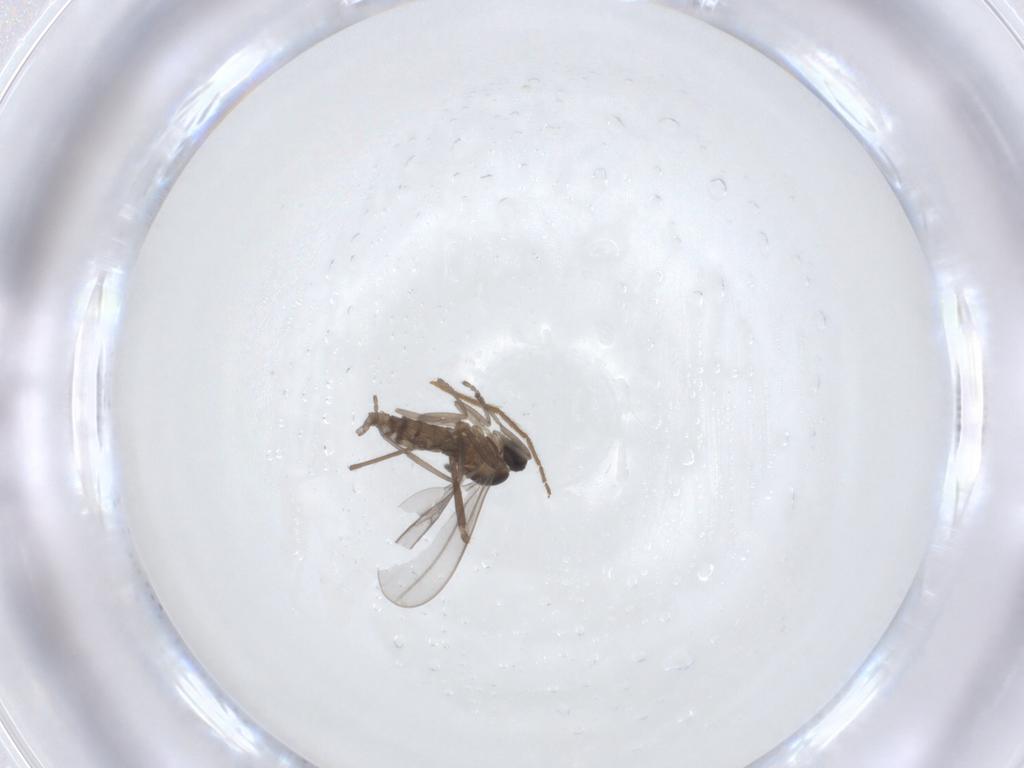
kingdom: Animalia
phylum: Arthropoda
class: Insecta
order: Diptera
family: Chironomidae
